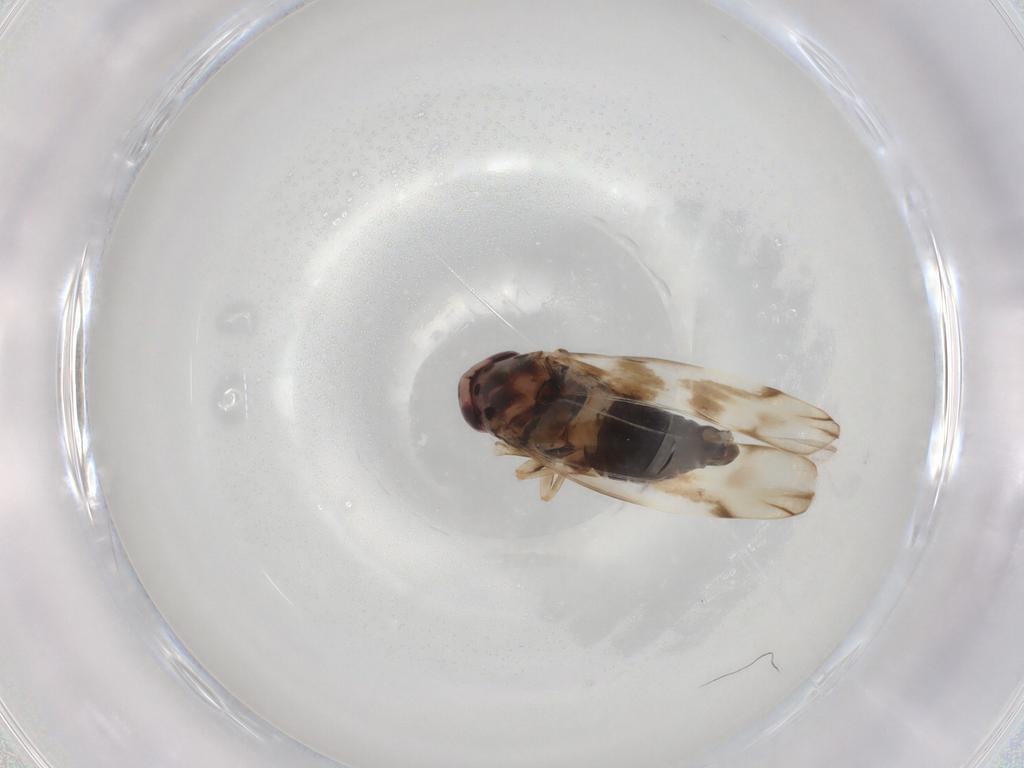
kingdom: Animalia
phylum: Arthropoda
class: Insecta
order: Hemiptera
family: Cicadellidae
